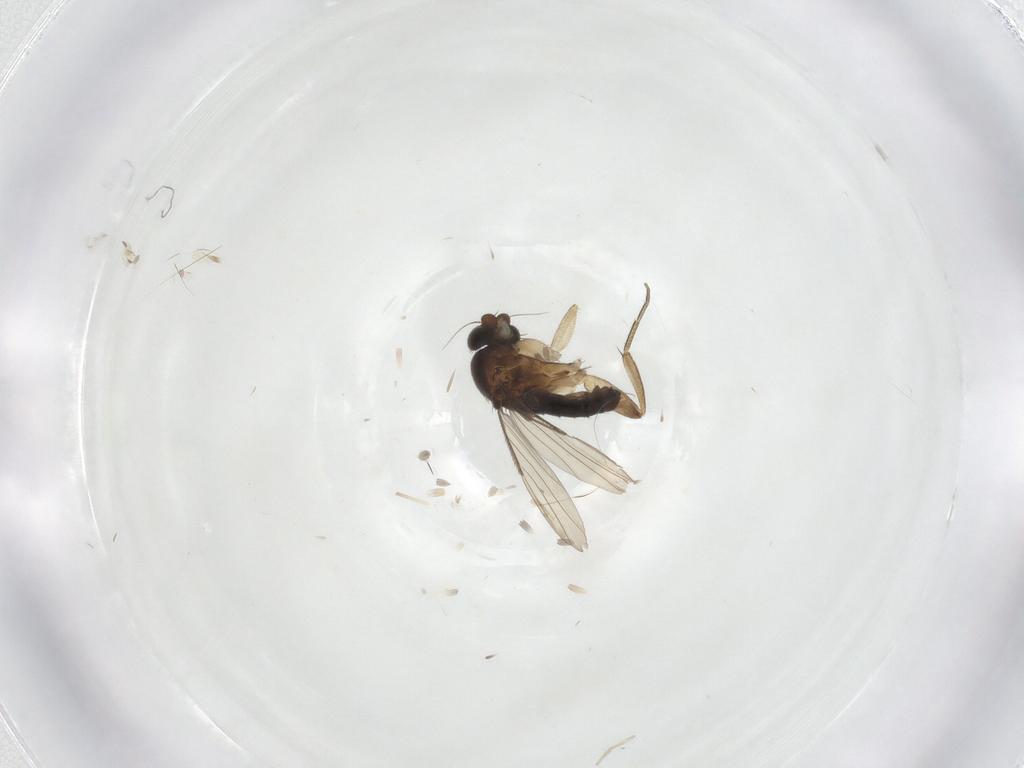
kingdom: Animalia
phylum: Arthropoda
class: Insecta
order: Diptera
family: Phoridae
